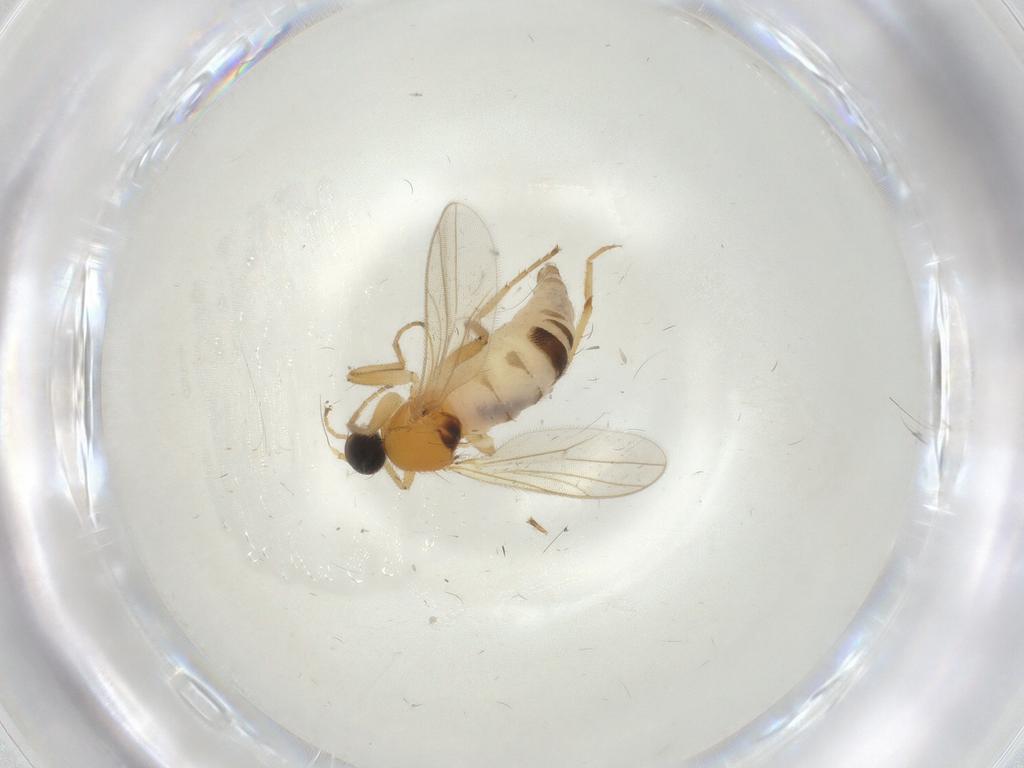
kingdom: Animalia
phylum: Arthropoda
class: Insecta
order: Diptera
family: Hybotidae
